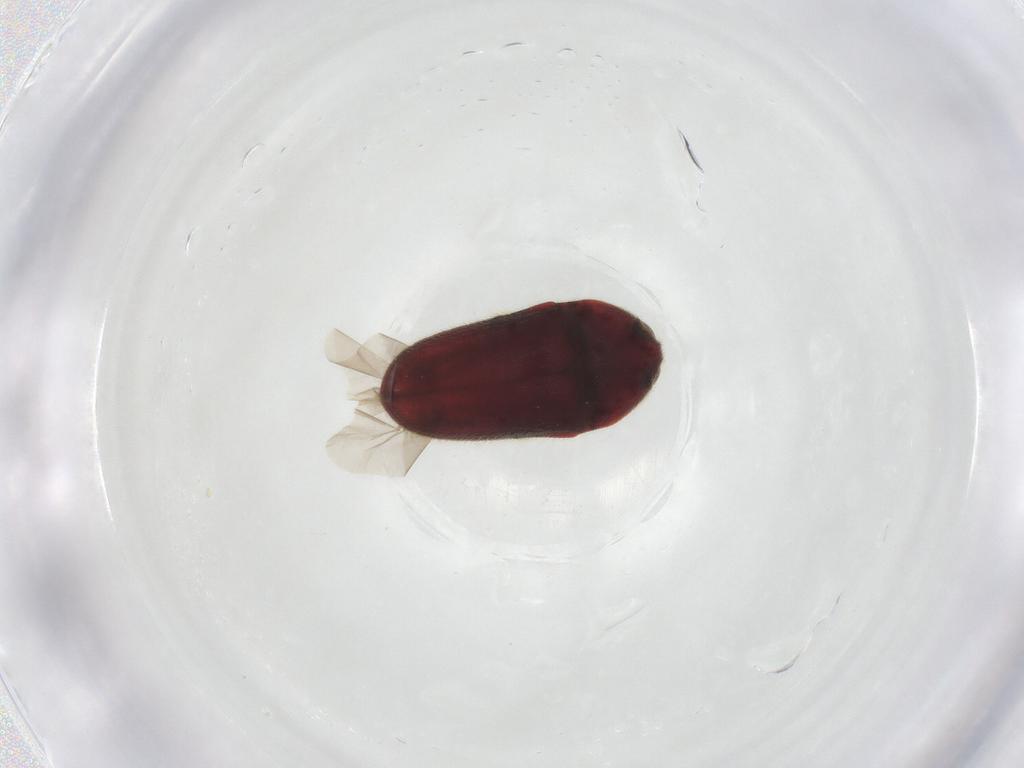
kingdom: Animalia
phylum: Arthropoda
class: Insecta
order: Coleoptera
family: Throscidae
